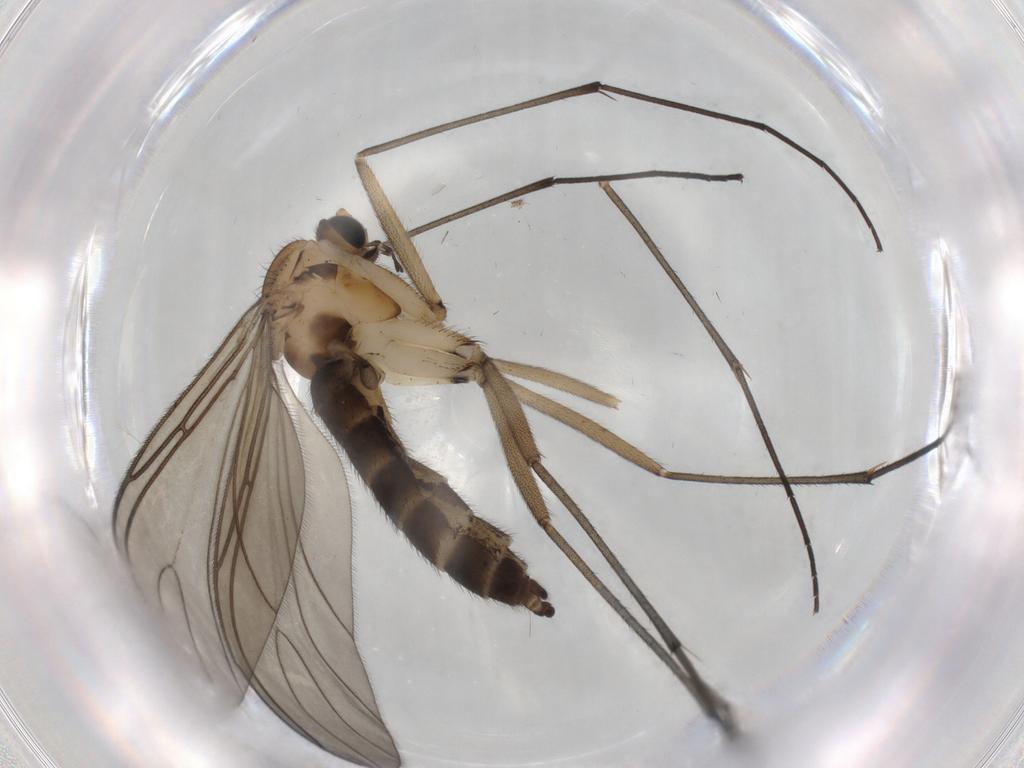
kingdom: Animalia
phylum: Arthropoda
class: Insecta
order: Diptera
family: Sciaridae
